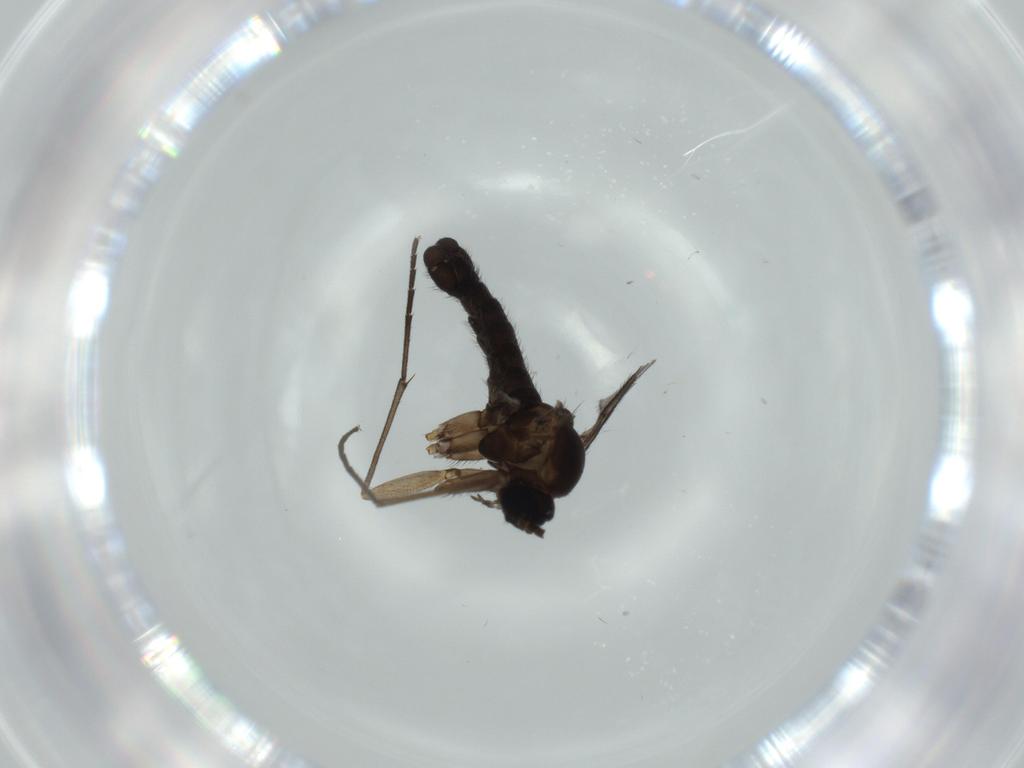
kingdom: Animalia
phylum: Arthropoda
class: Insecta
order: Diptera
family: Sciaridae
